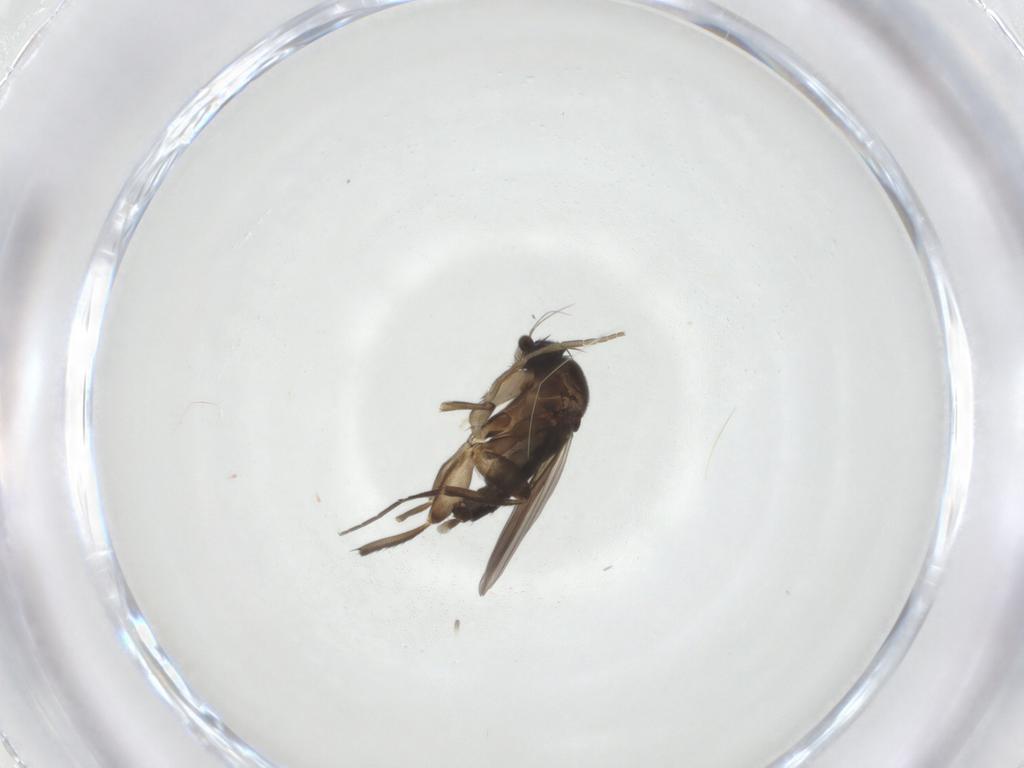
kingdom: Animalia
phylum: Arthropoda
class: Insecta
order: Diptera
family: Phoridae
